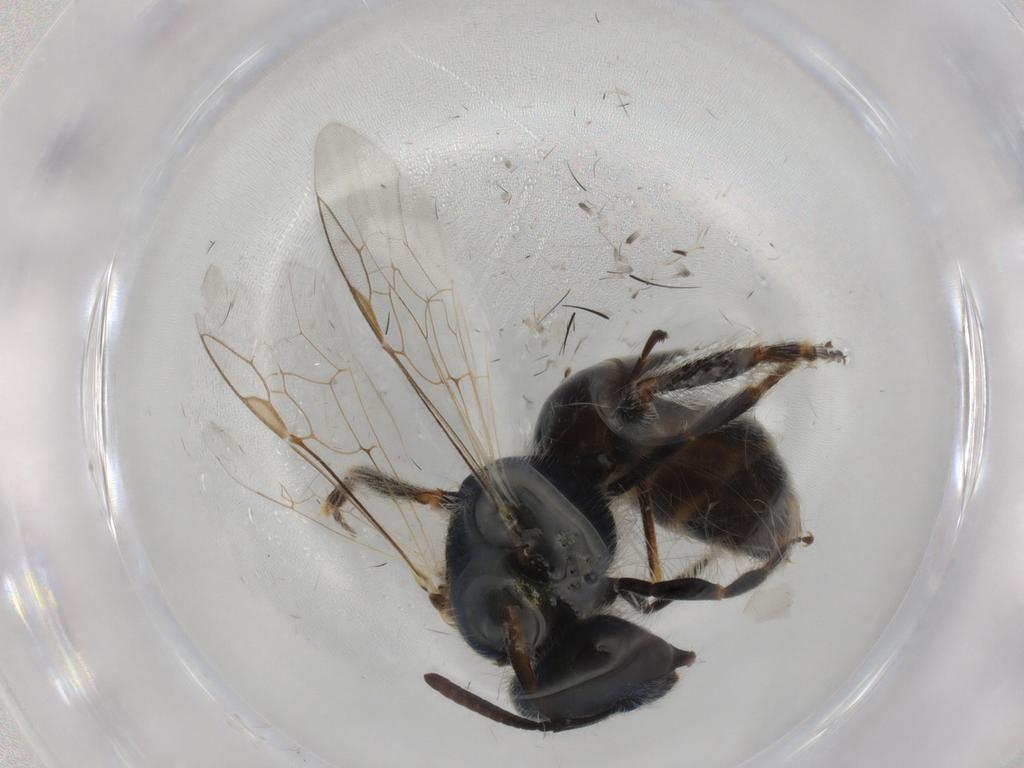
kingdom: Animalia
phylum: Arthropoda
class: Insecta
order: Hymenoptera
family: Halictidae
